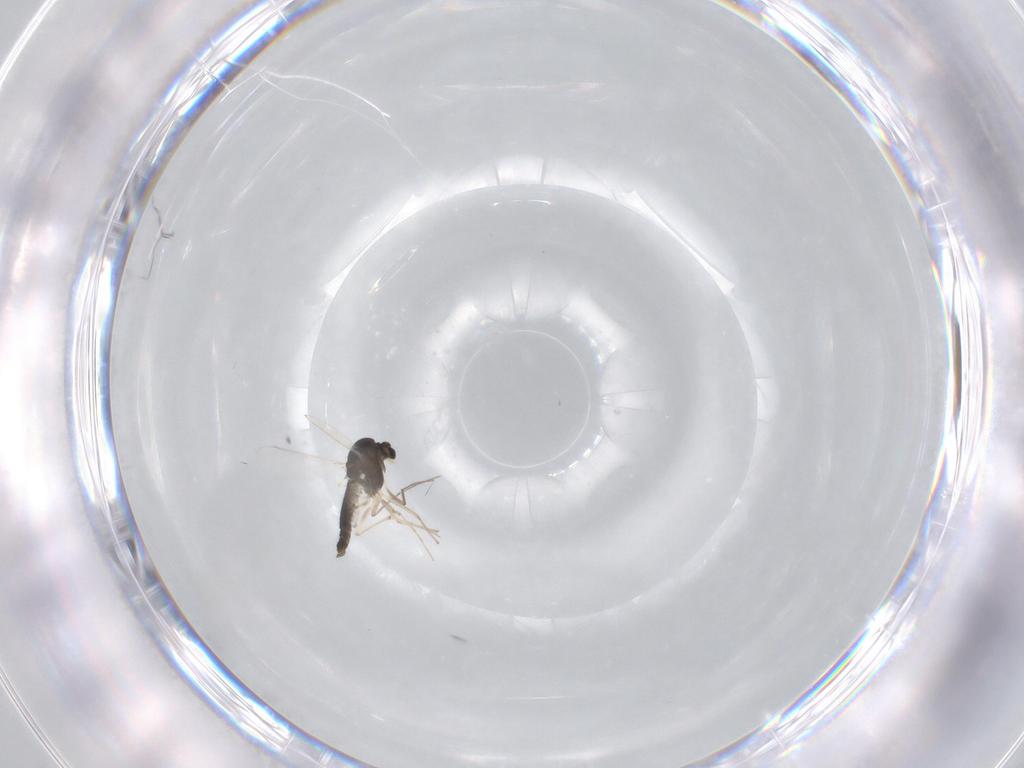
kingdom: Animalia
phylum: Arthropoda
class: Insecta
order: Diptera
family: Chironomidae
